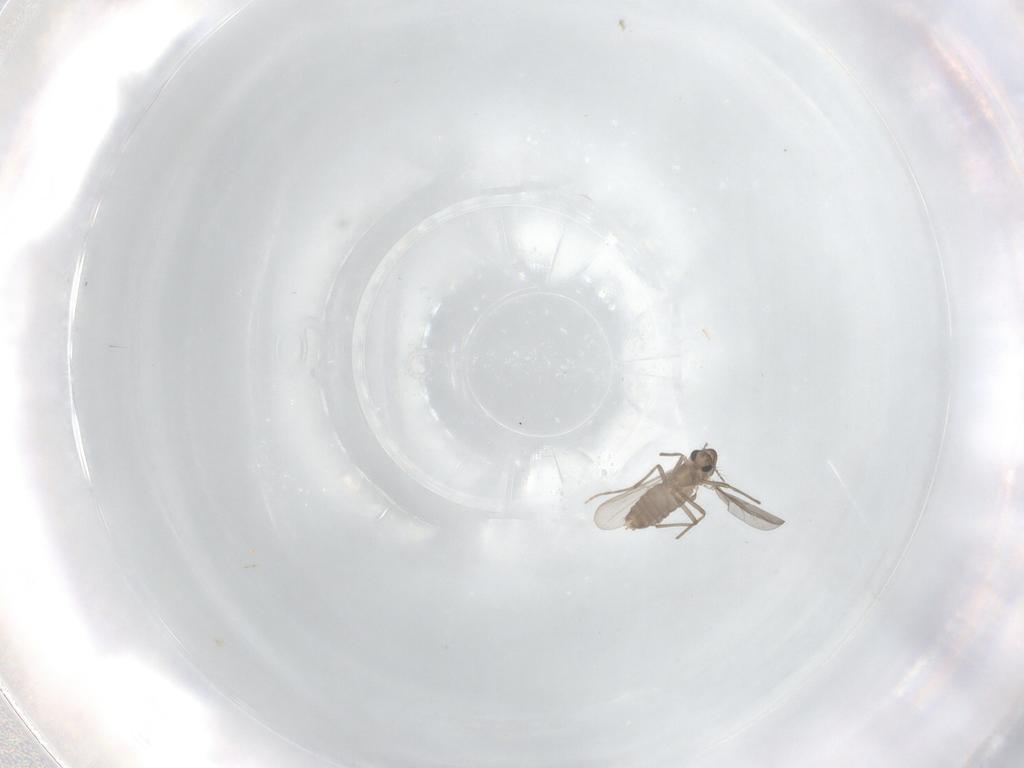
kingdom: Animalia
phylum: Arthropoda
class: Insecta
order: Diptera
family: Chironomidae
